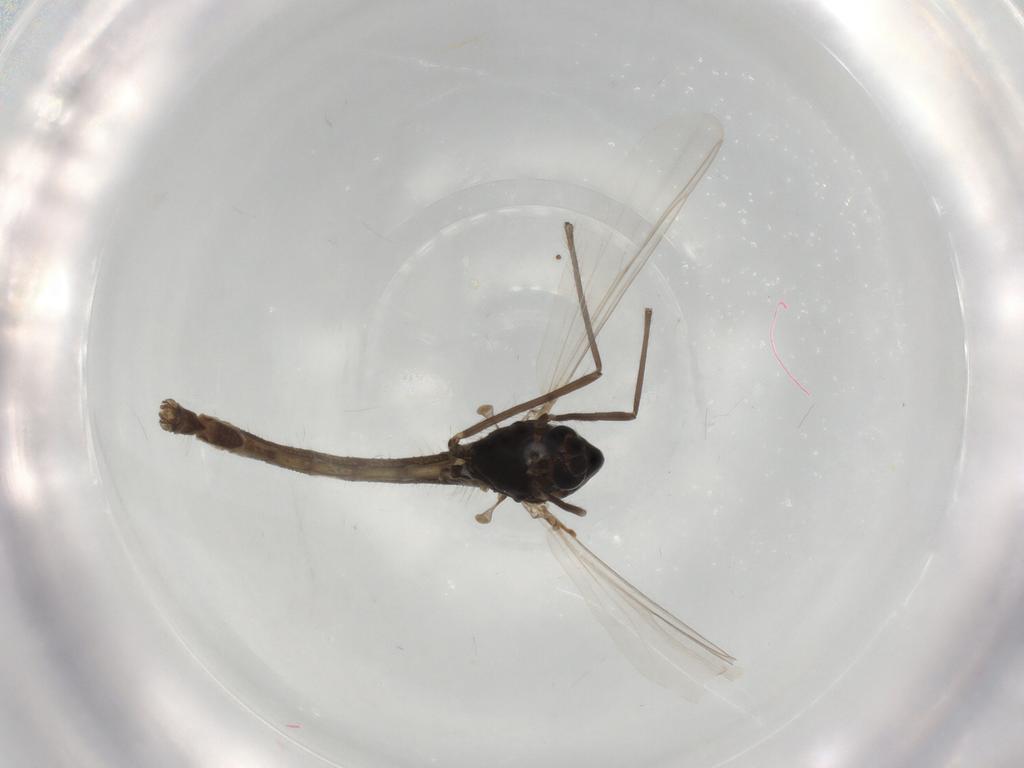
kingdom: Animalia
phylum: Arthropoda
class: Insecta
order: Diptera
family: Chironomidae
